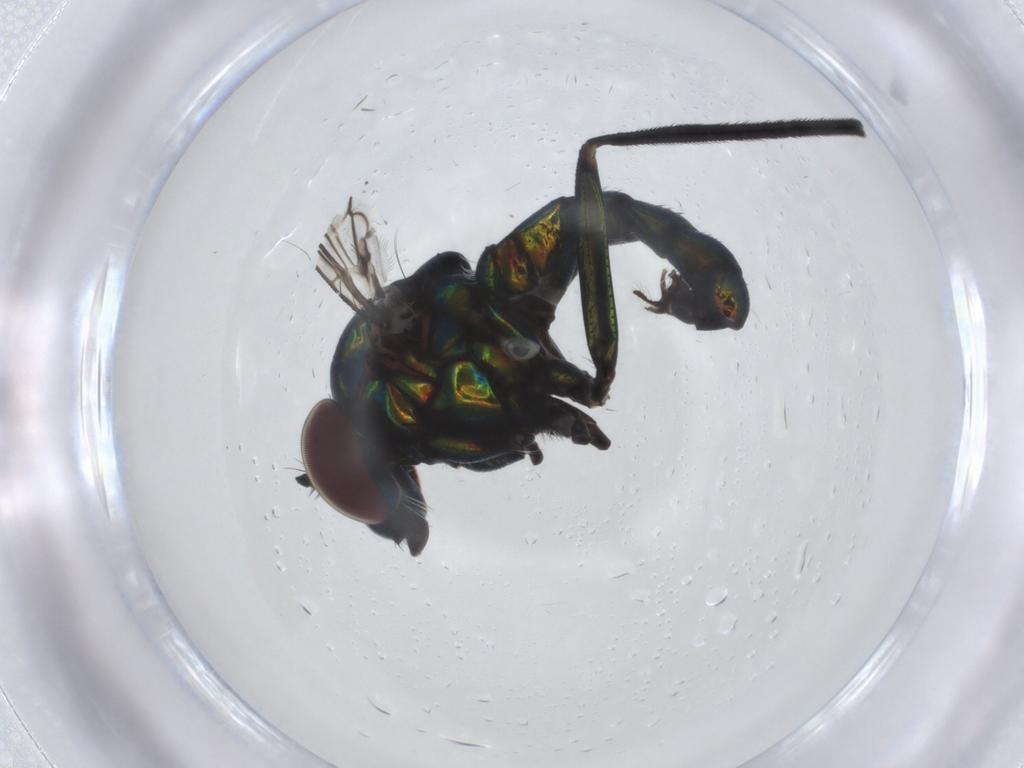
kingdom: Animalia
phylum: Arthropoda
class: Insecta
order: Diptera
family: Dolichopodidae
